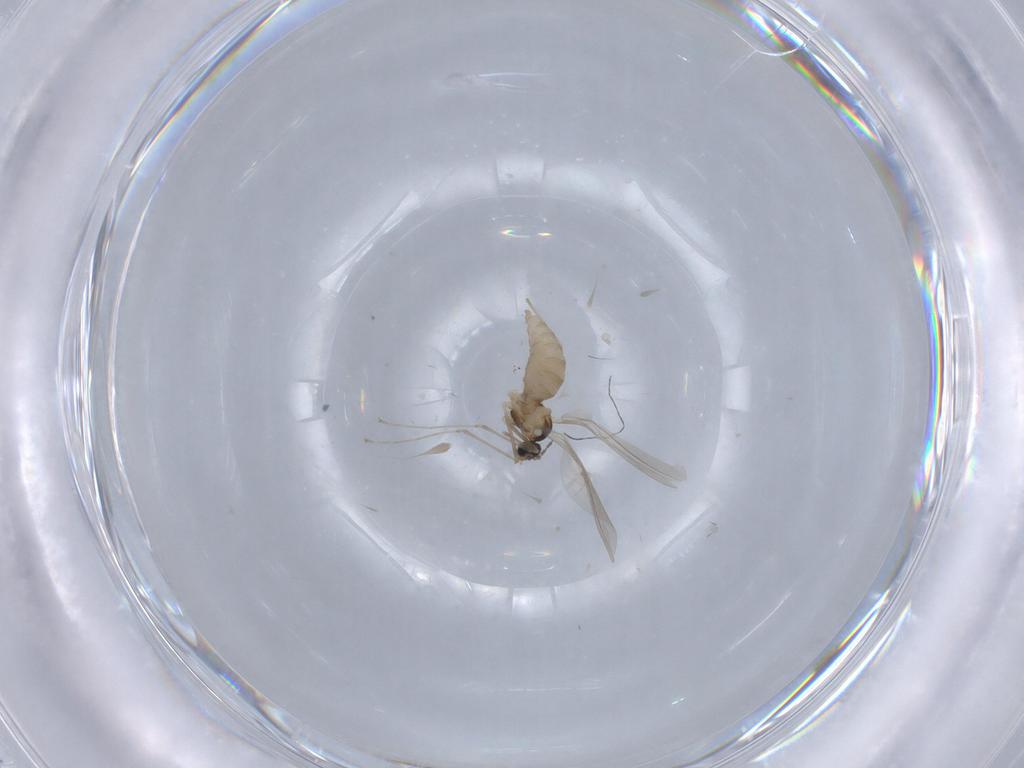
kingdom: Animalia
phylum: Arthropoda
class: Insecta
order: Diptera
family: Cecidomyiidae
